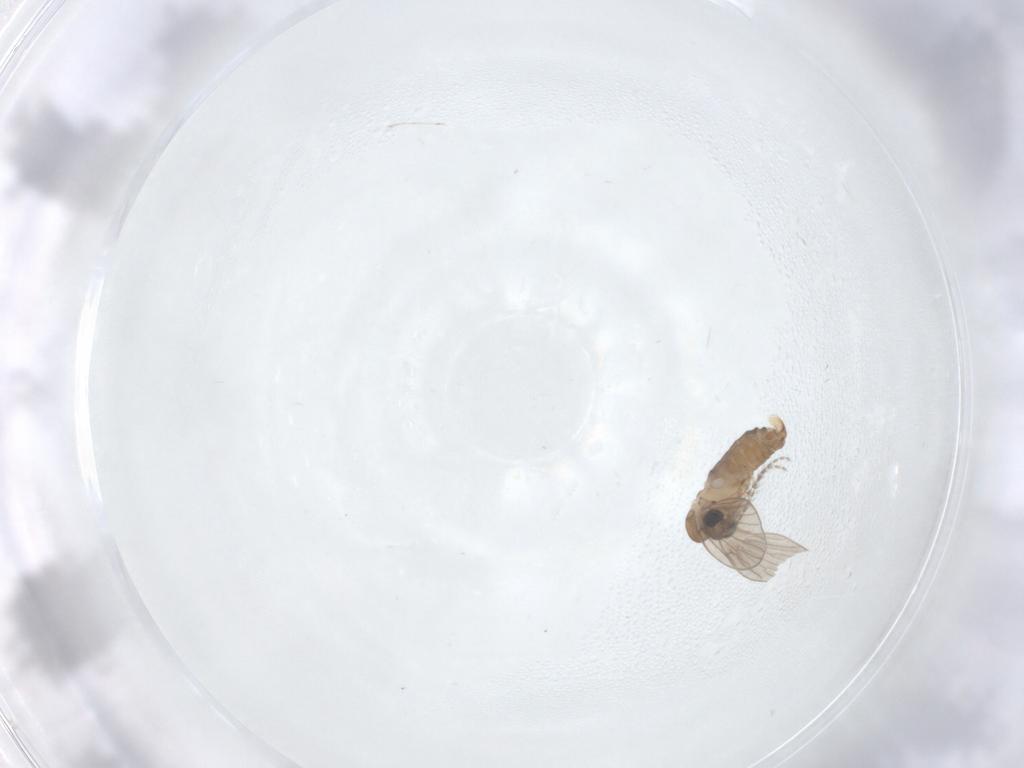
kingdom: Animalia
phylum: Arthropoda
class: Insecta
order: Diptera
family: Psychodidae
